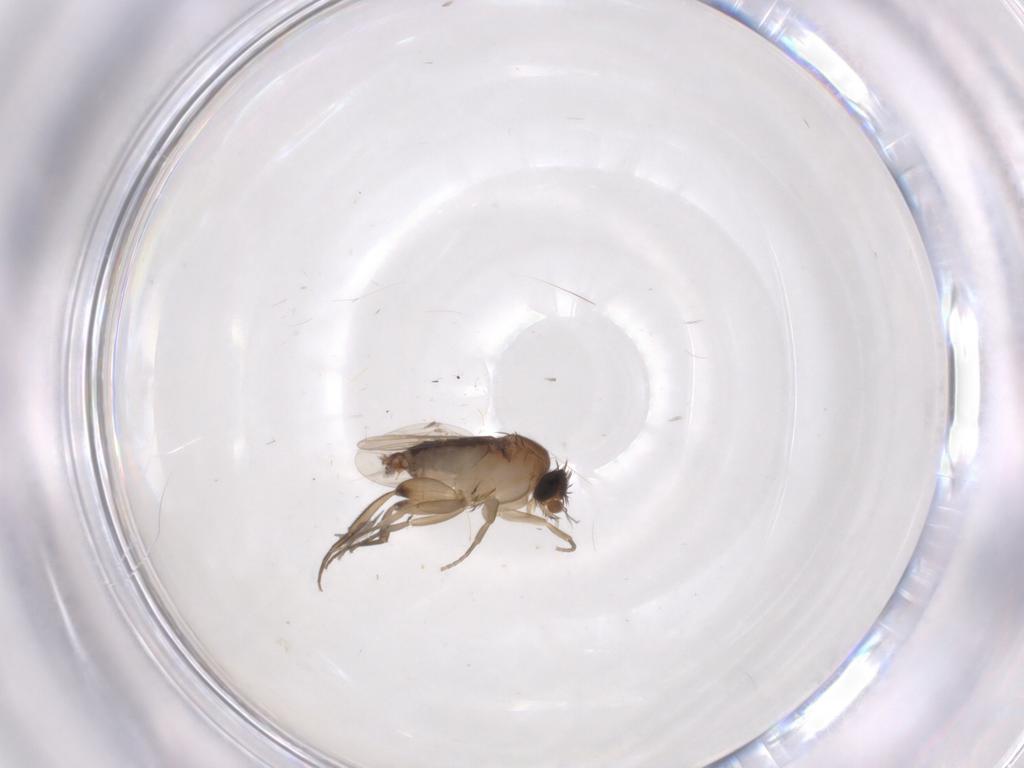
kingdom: Animalia
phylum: Arthropoda
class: Insecta
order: Diptera
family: Phoridae
